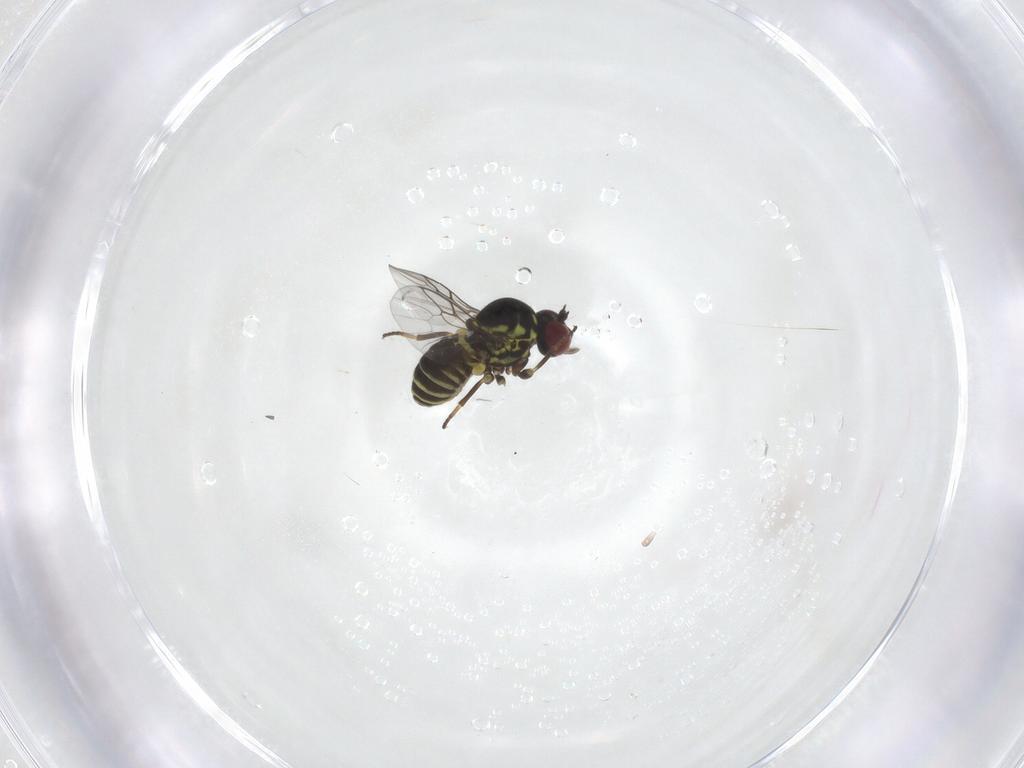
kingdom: Animalia
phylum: Arthropoda
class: Insecta
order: Diptera
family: Mythicomyiidae
